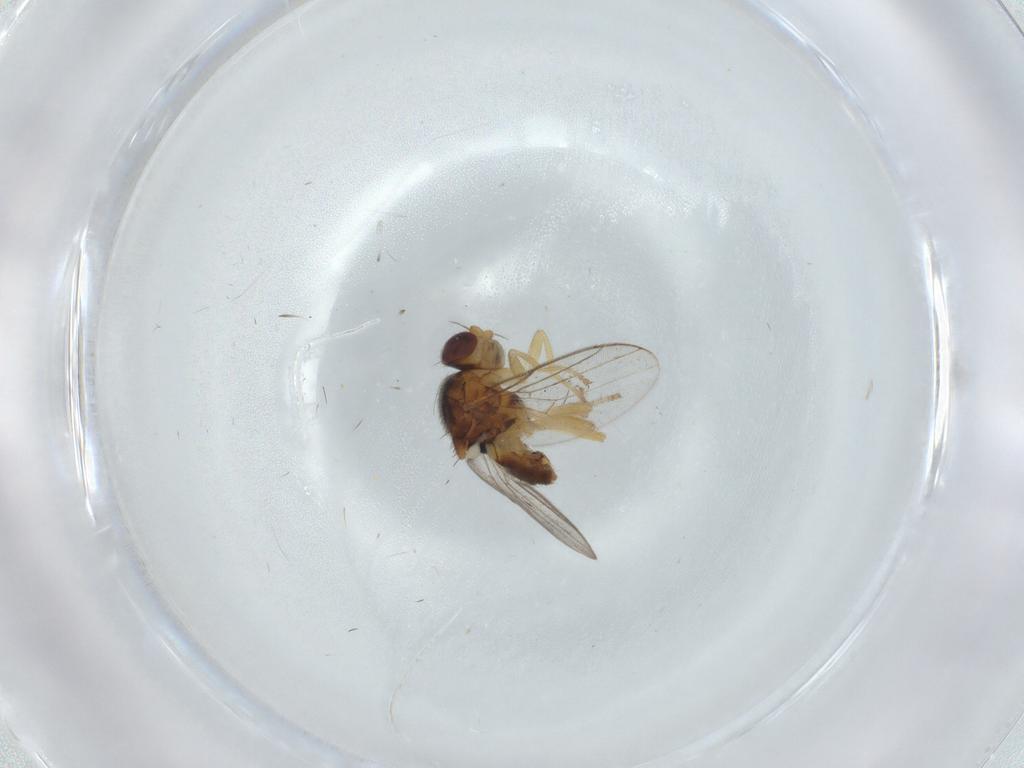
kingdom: Animalia
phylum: Arthropoda
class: Insecta
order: Diptera
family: Chloropidae
